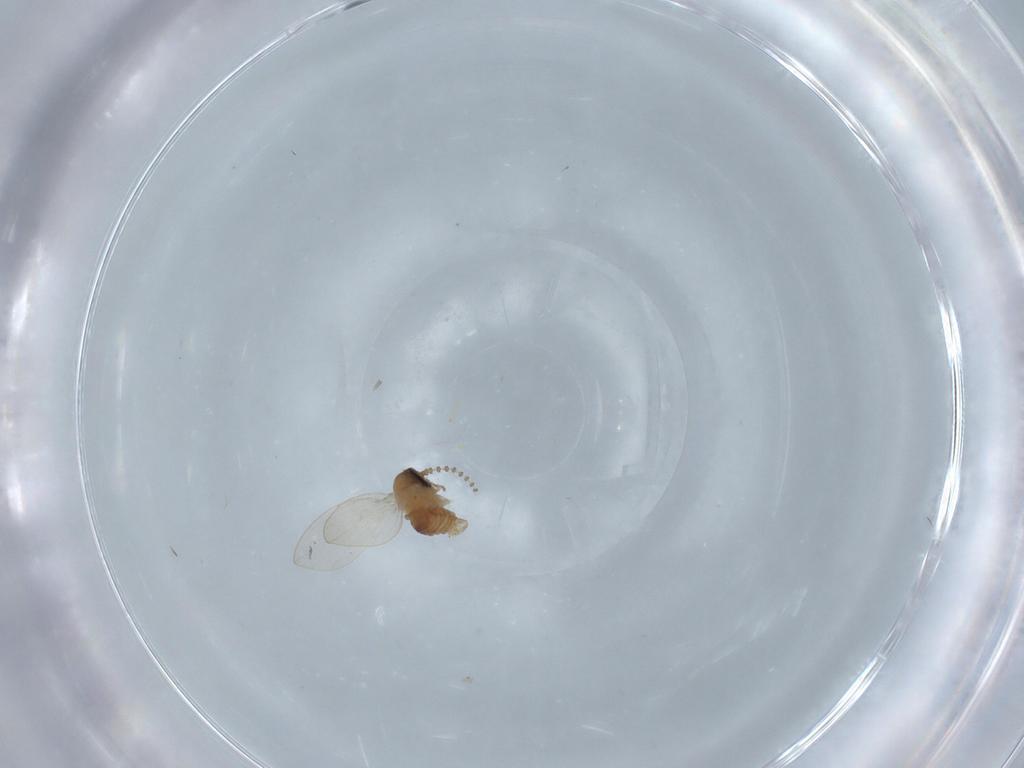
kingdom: Animalia
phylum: Arthropoda
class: Insecta
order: Diptera
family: Psychodidae
